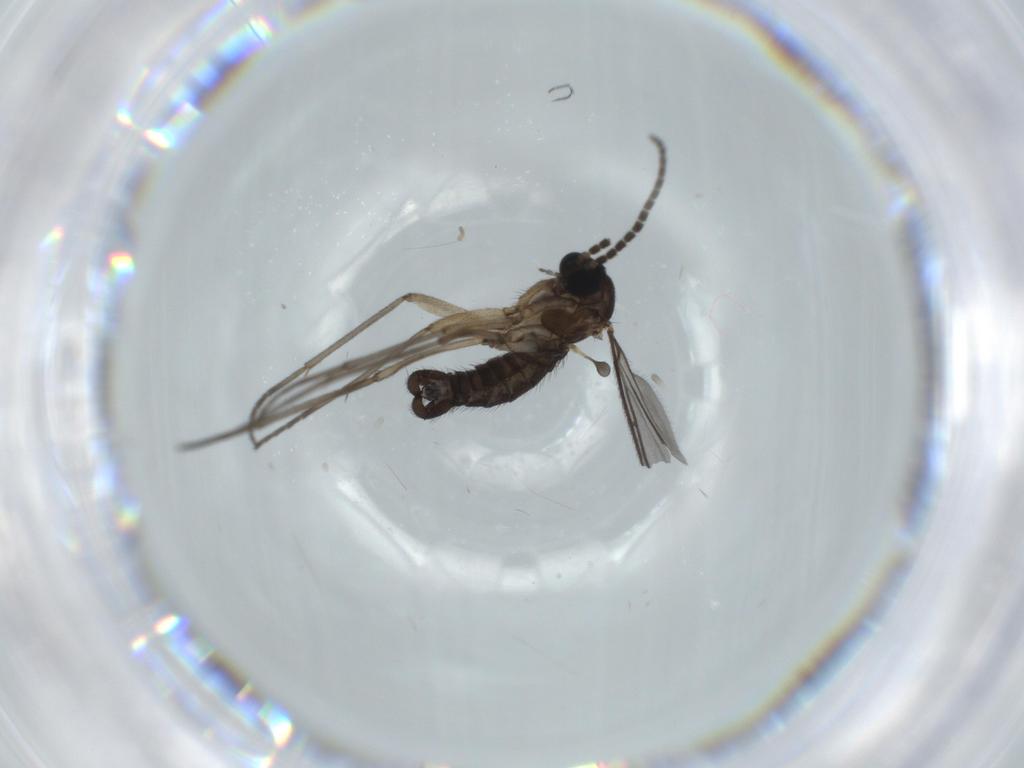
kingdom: Animalia
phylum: Arthropoda
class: Insecta
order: Diptera
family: Sciaridae
